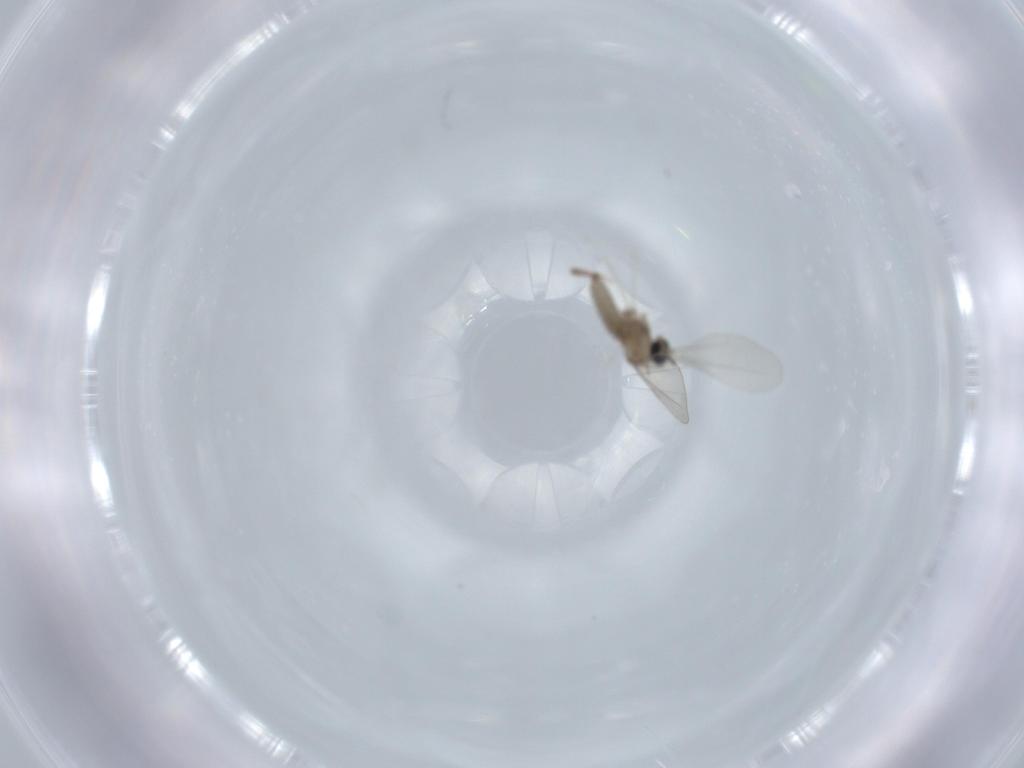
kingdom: Animalia
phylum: Arthropoda
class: Insecta
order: Diptera
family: Cecidomyiidae
